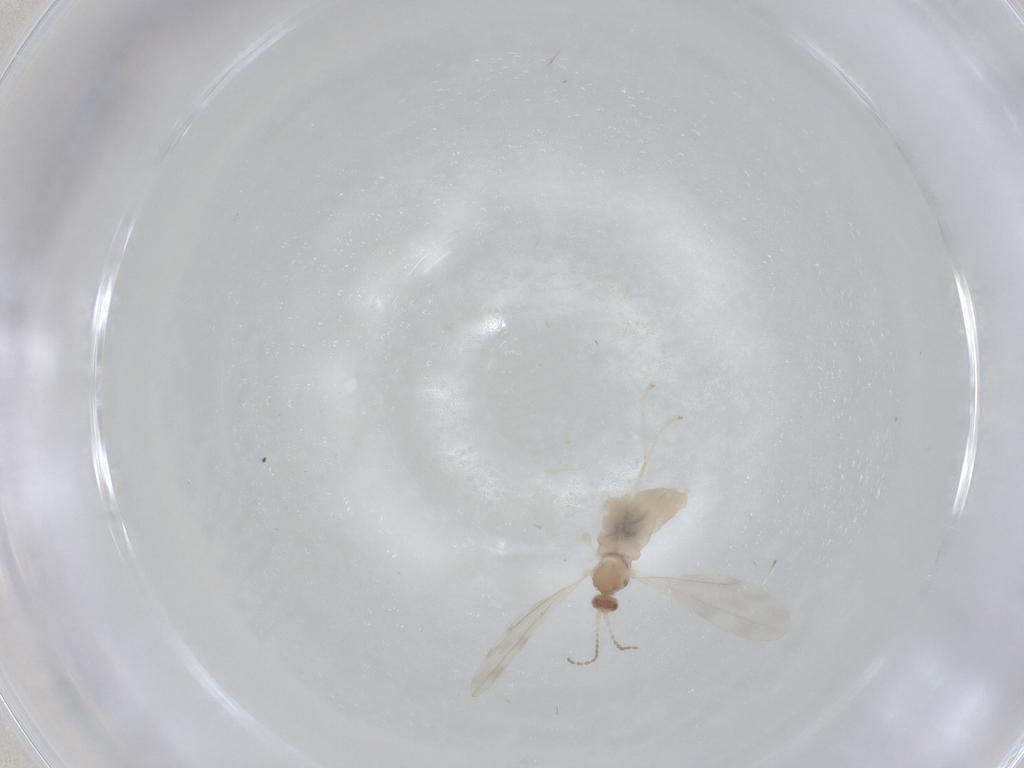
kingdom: Animalia
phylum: Arthropoda
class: Insecta
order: Diptera
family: Cecidomyiidae
